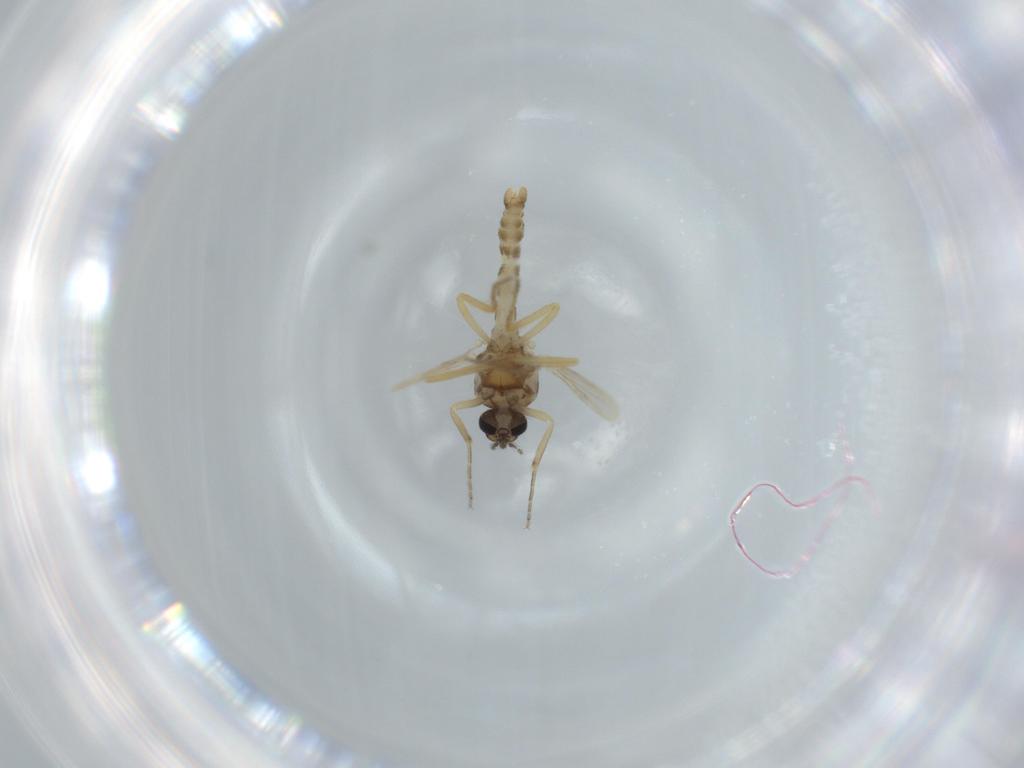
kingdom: Animalia
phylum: Arthropoda
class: Insecta
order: Diptera
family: Ceratopogonidae
